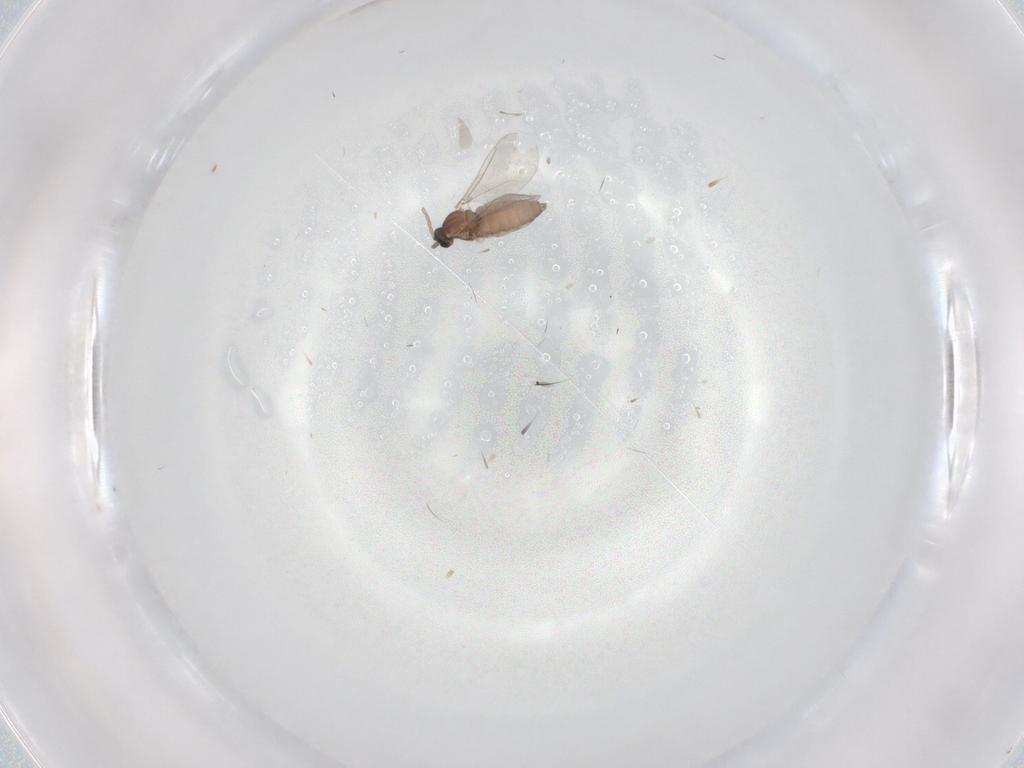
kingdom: Animalia
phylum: Arthropoda
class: Insecta
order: Diptera
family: Cecidomyiidae
